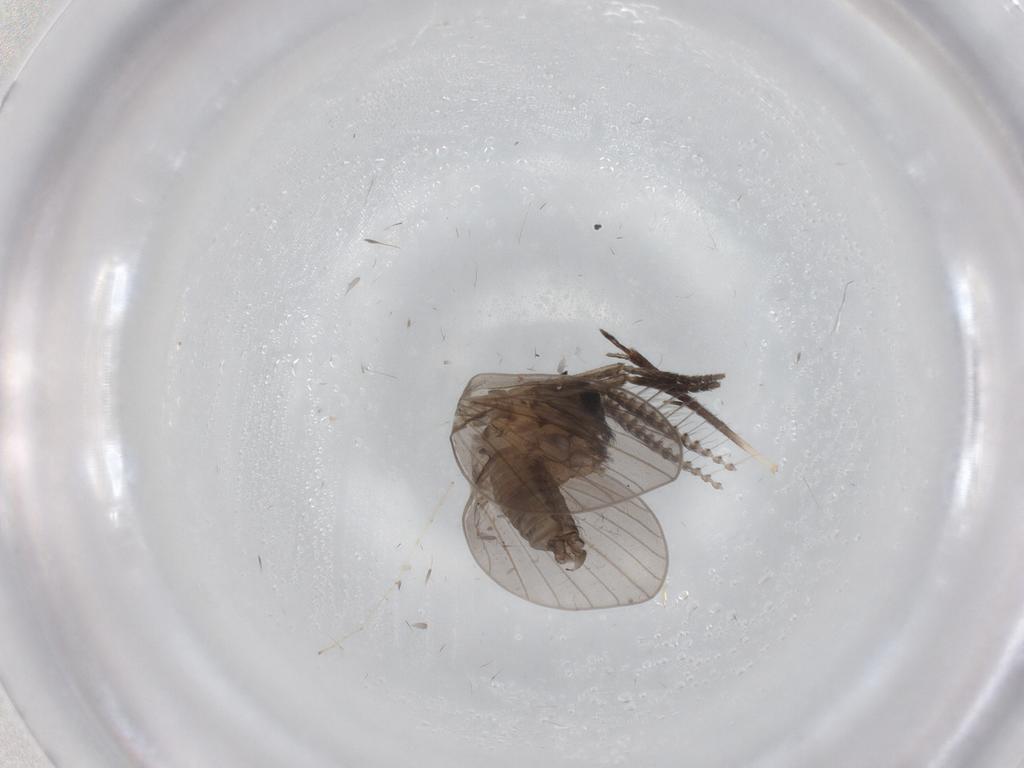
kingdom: Animalia
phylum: Arthropoda
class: Insecta
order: Diptera
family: Psychodidae
